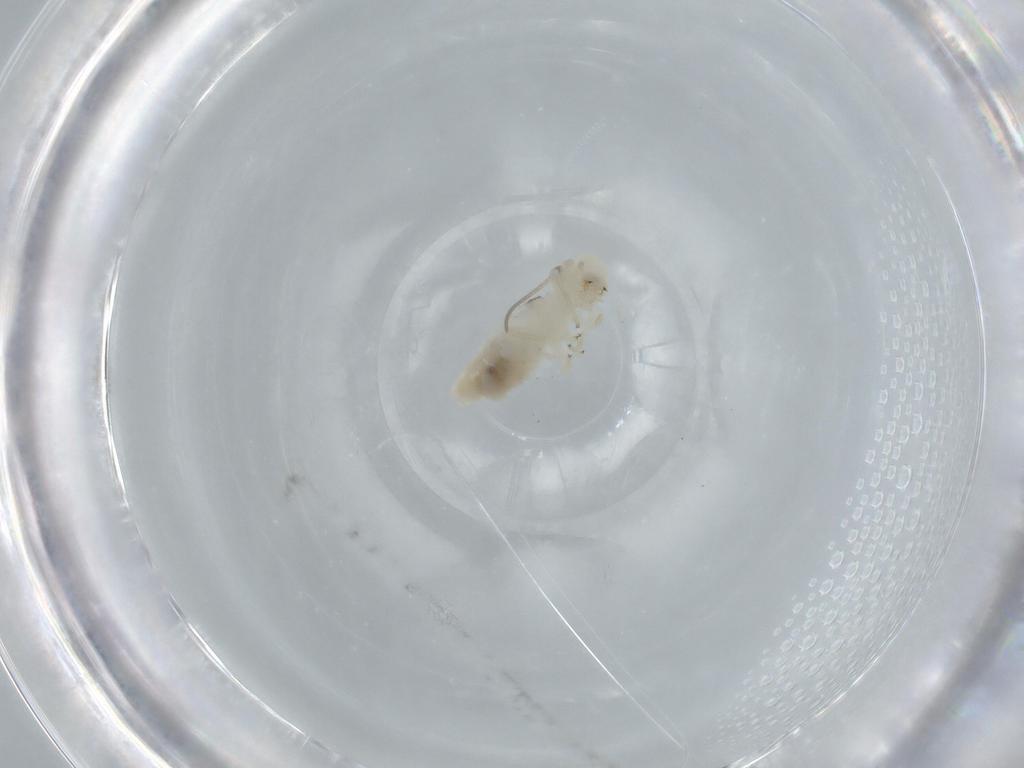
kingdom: Animalia
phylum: Arthropoda
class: Insecta
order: Psocodea
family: Caeciliusidae
